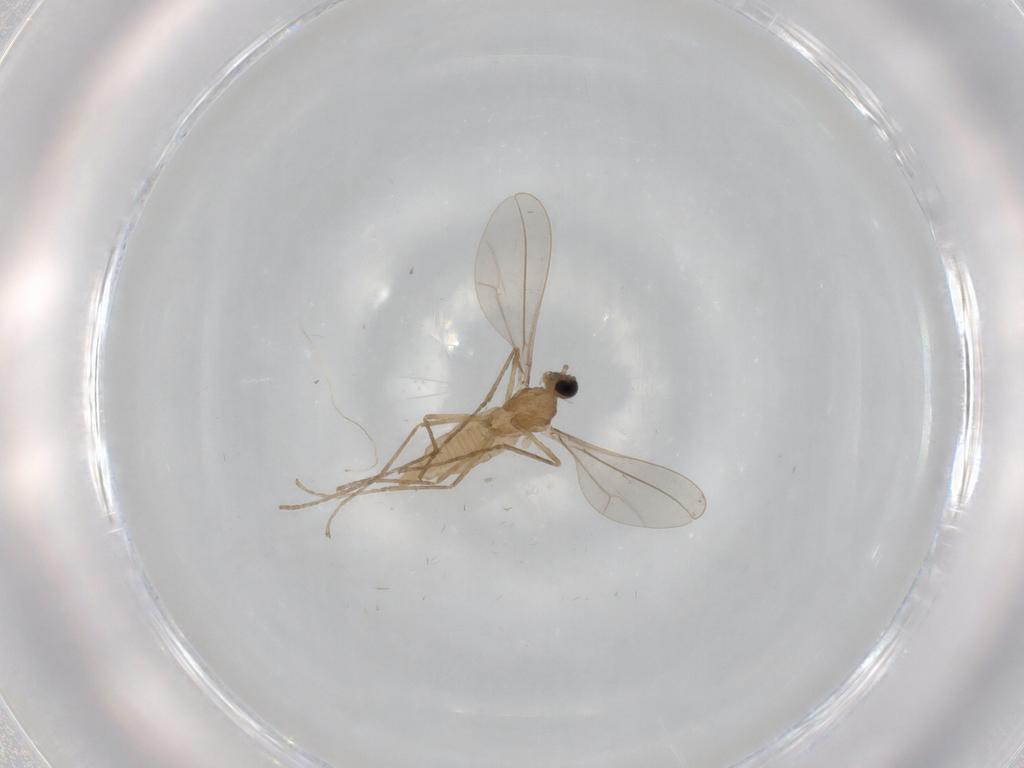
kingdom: Animalia
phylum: Arthropoda
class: Insecta
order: Diptera
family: Cecidomyiidae
